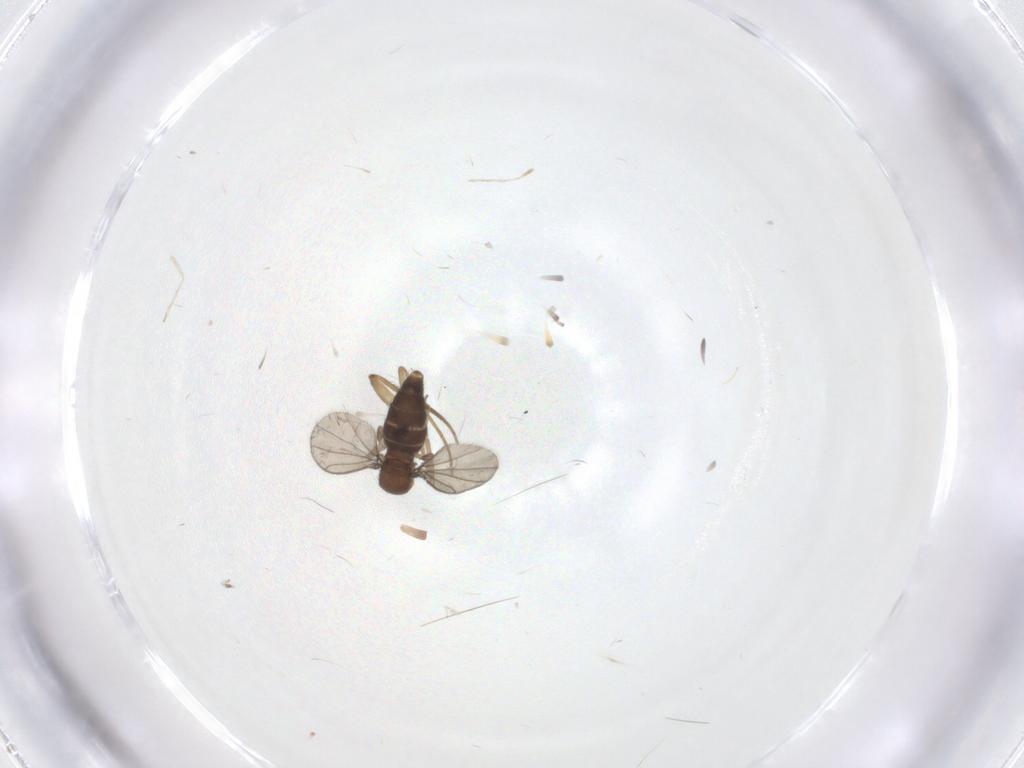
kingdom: Animalia
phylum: Arthropoda
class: Insecta
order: Diptera
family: Dolichopodidae
